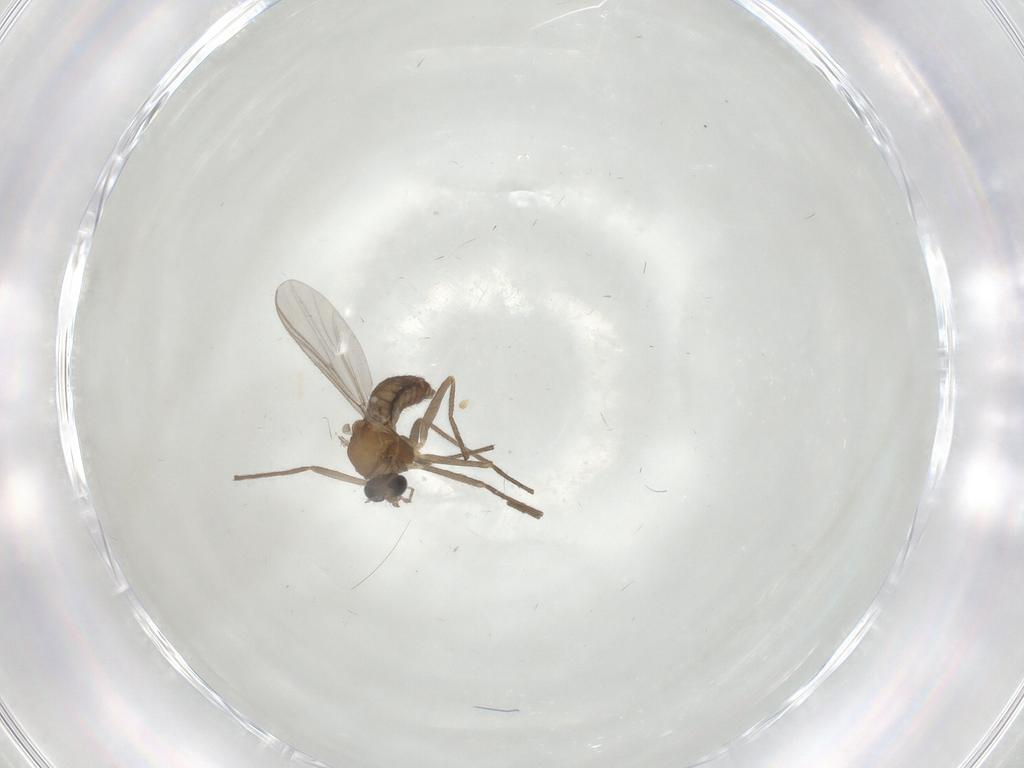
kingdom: Animalia
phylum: Arthropoda
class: Insecta
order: Diptera
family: Chironomidae
